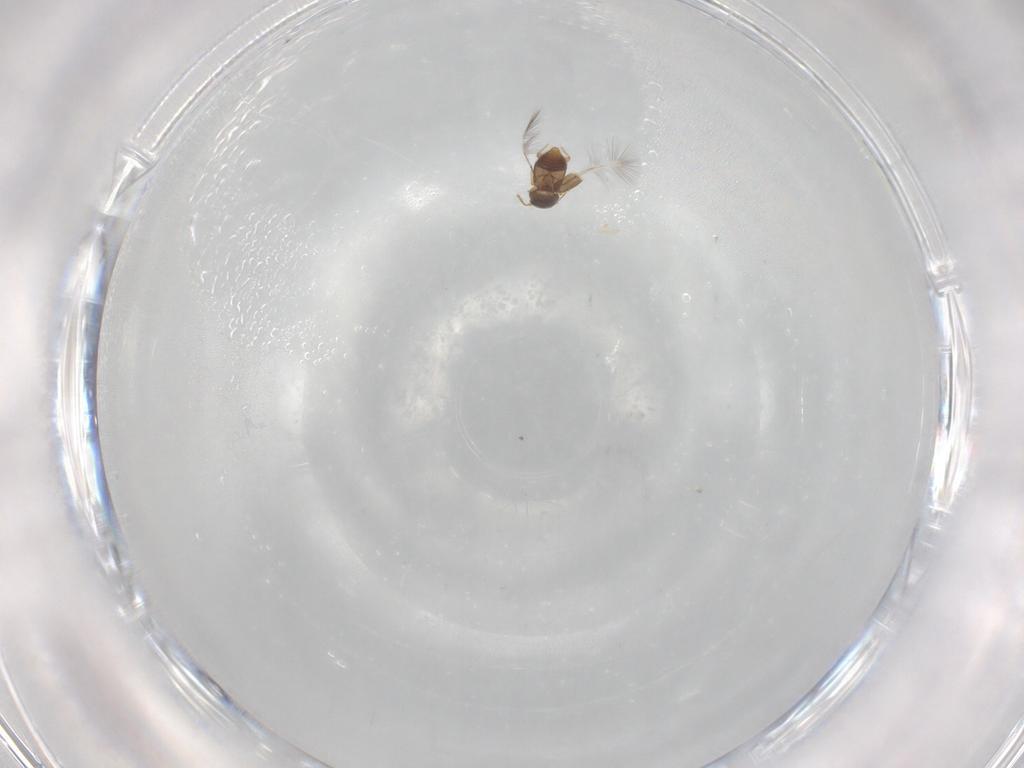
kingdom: Animalia
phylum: Arthropoda
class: Insecta
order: Coleoptera
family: Ptiliidae
